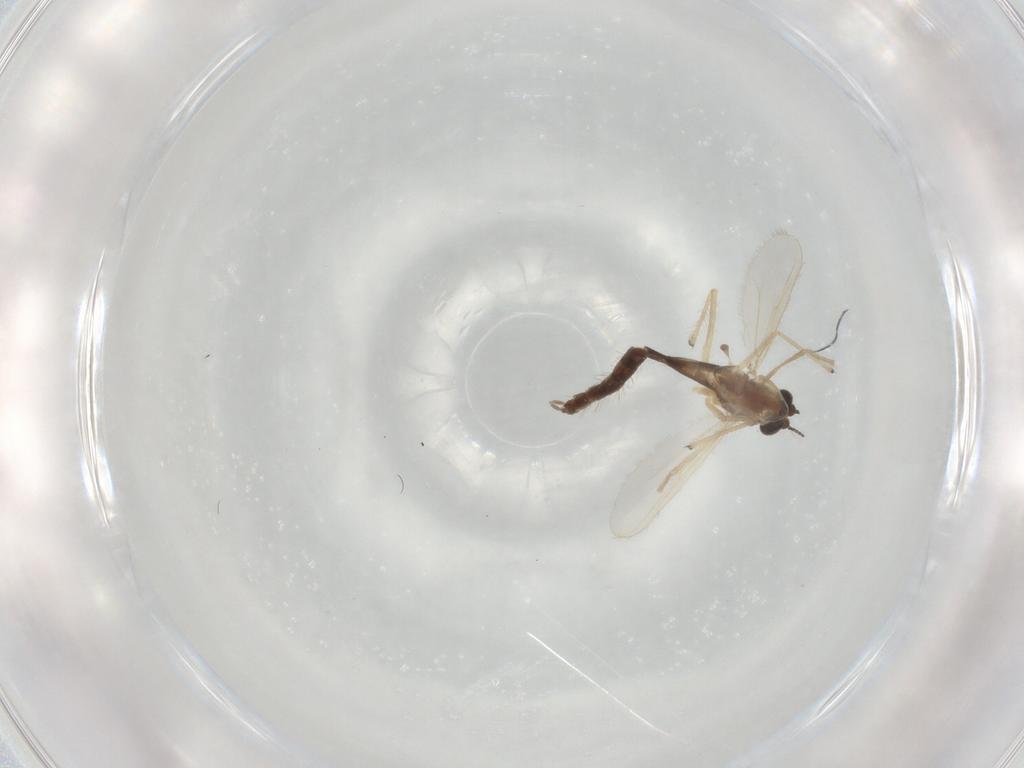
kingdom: Animalia
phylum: Arthropoda
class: Insecta
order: Diptera
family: Chironomidae
